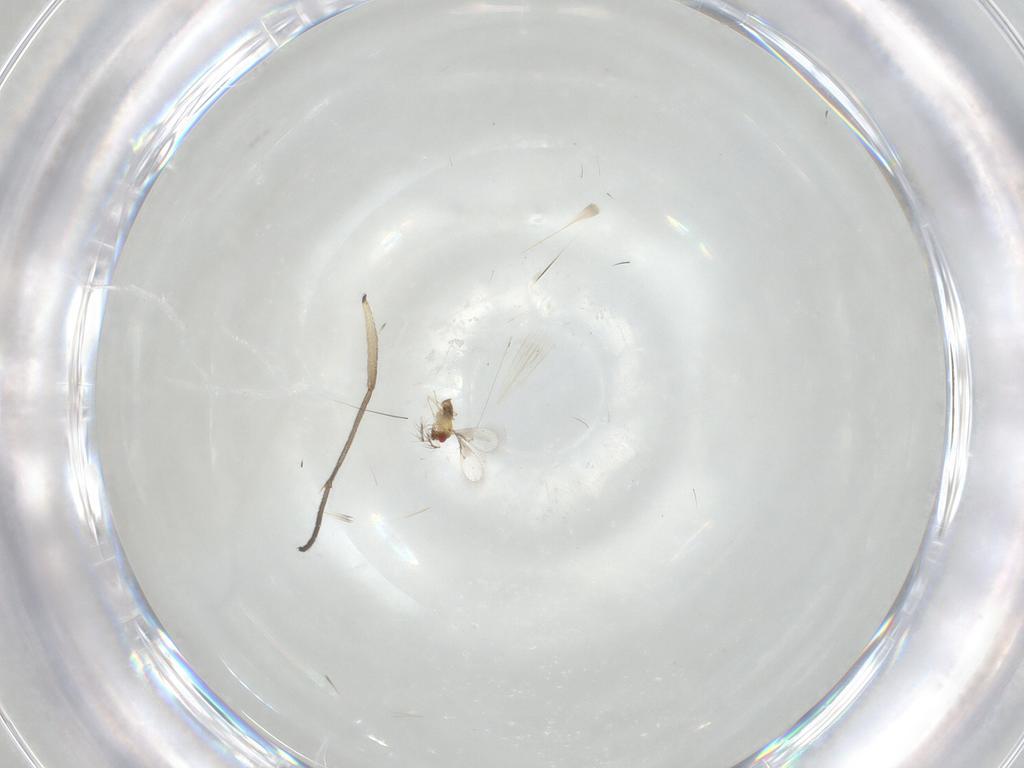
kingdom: Animalia
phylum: Arthropoda
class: Insecta
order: Hymenoptera
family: Trichogrammatidae
